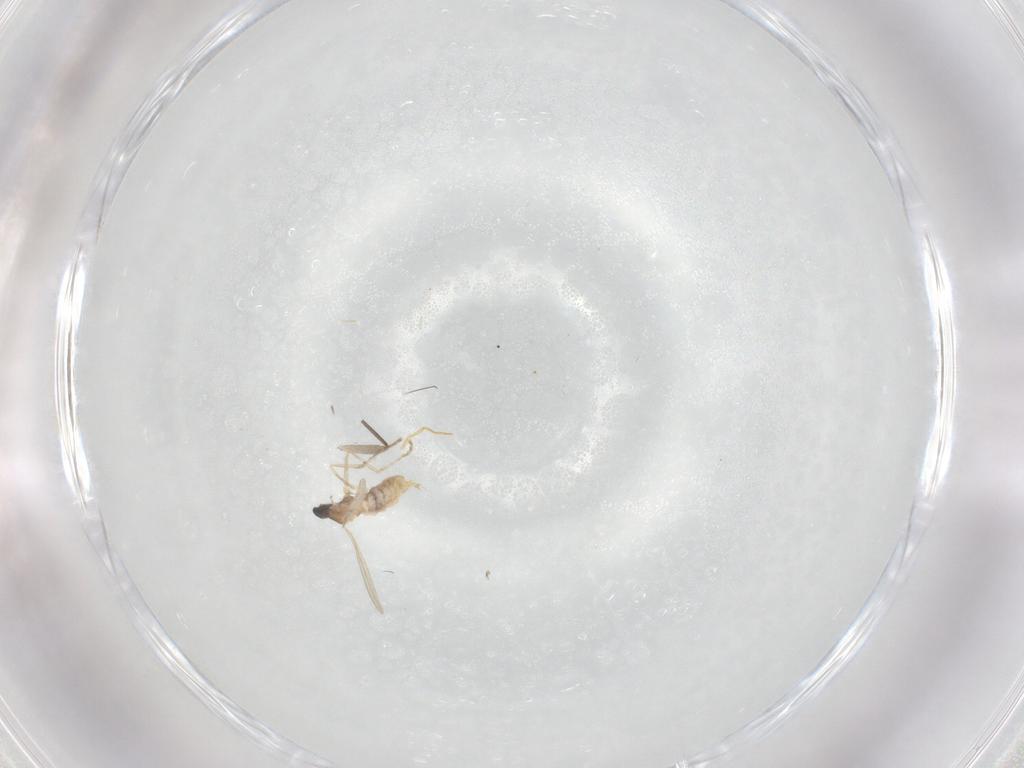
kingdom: Animalia
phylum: Arthropoda
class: Insecta
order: Diptera
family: Cecidomyiidae
